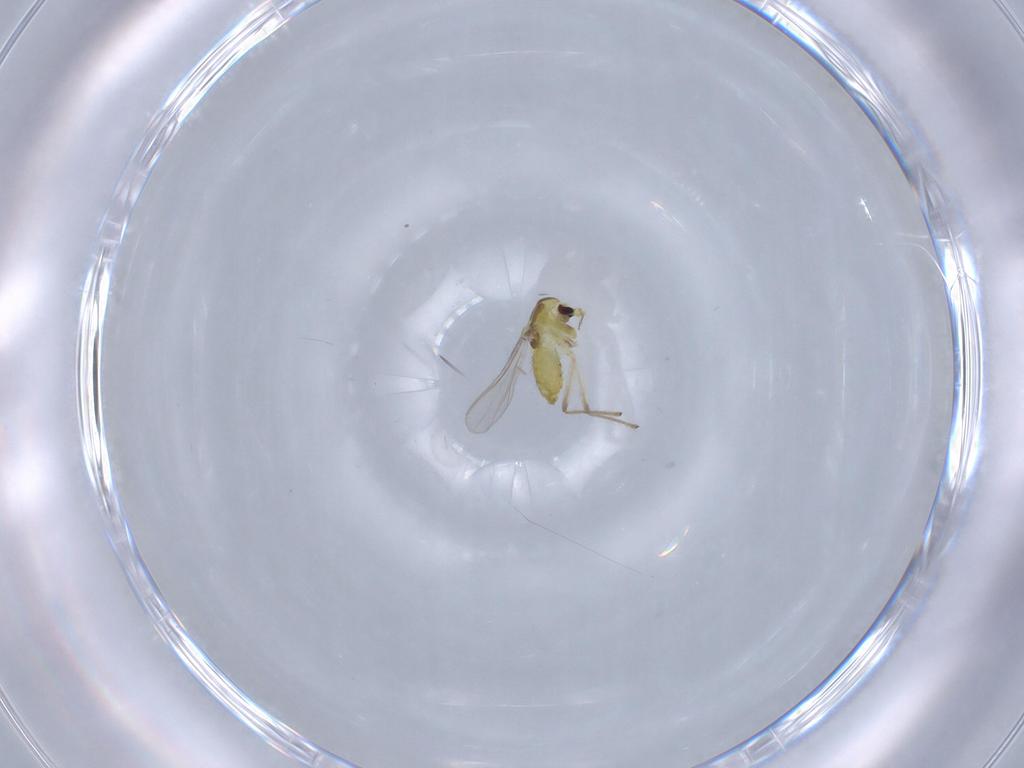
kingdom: Animalia
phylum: Arthropoda
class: Insecta
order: Diptera
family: Chironomidae
